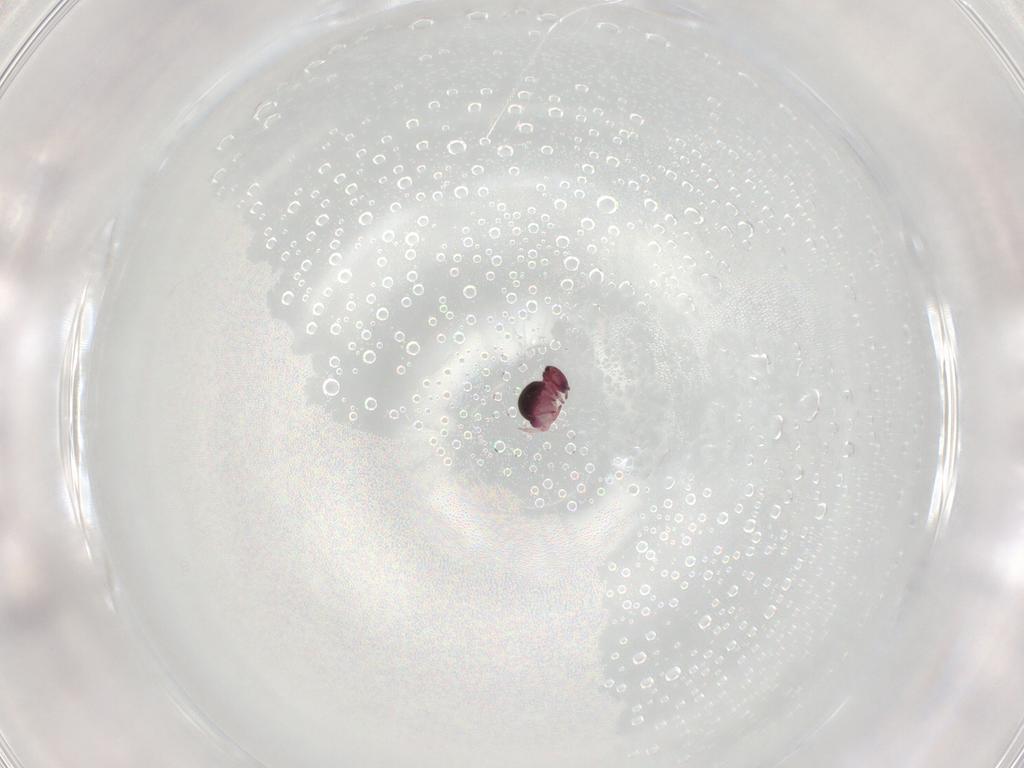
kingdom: Animalia
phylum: Arthropoda
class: Collembola
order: Symphypleona
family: Sminthurididae
